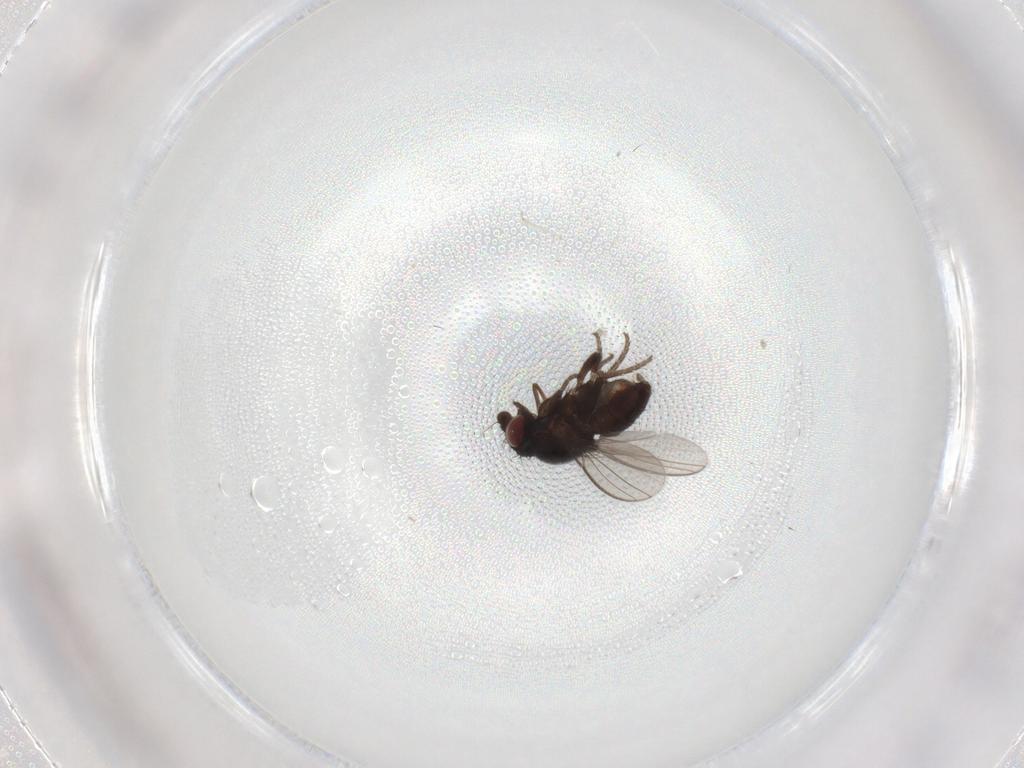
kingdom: Animalia
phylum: Arthropoda
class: Insecta
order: Diptera
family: Phoridae
